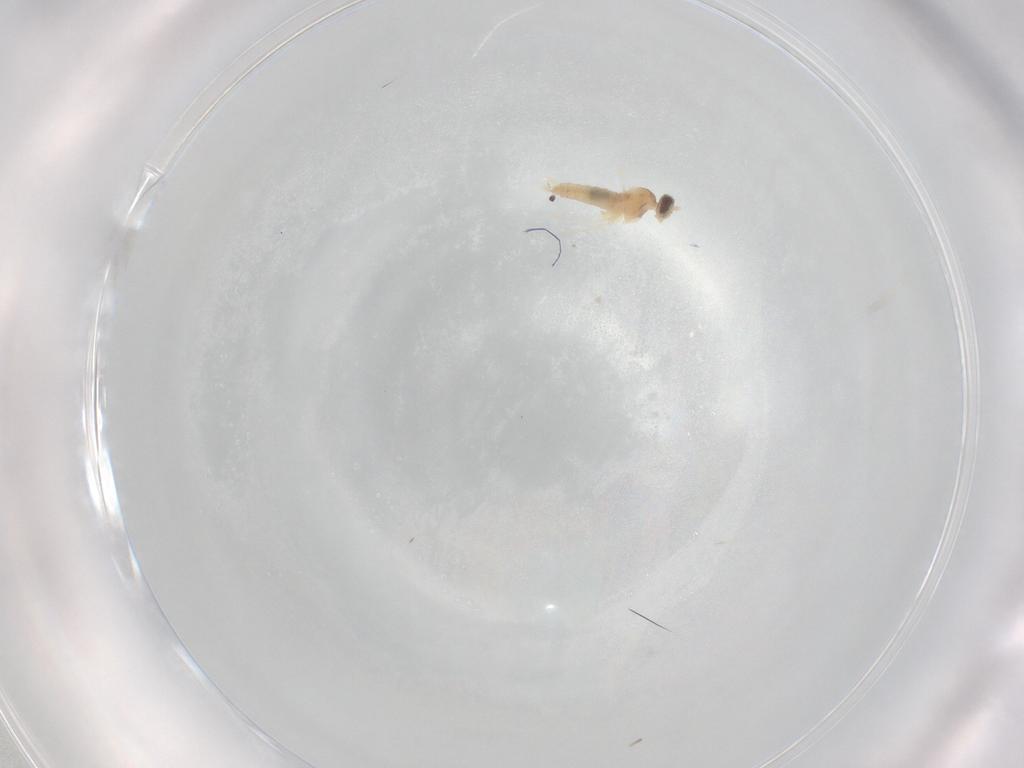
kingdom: Animalia
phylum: Arthropoda
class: Insecta
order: Diptera
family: Cecidomyiidae
